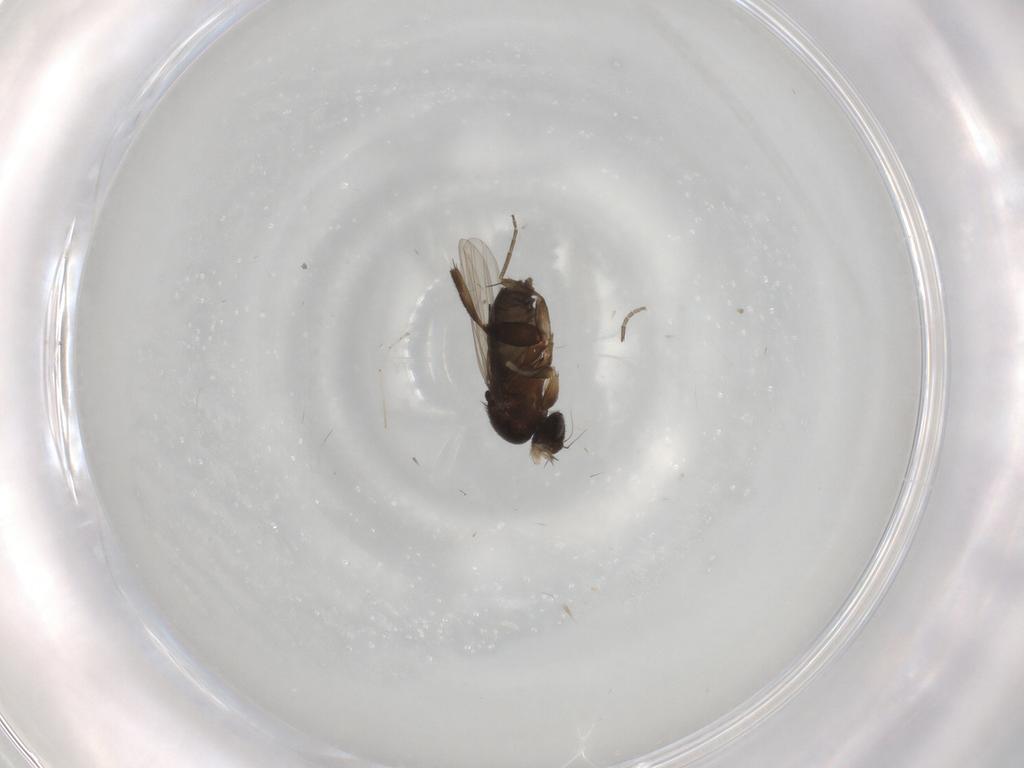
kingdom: Animalia
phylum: Arthropoda
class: Insecta
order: Diptera
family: Phoridae
